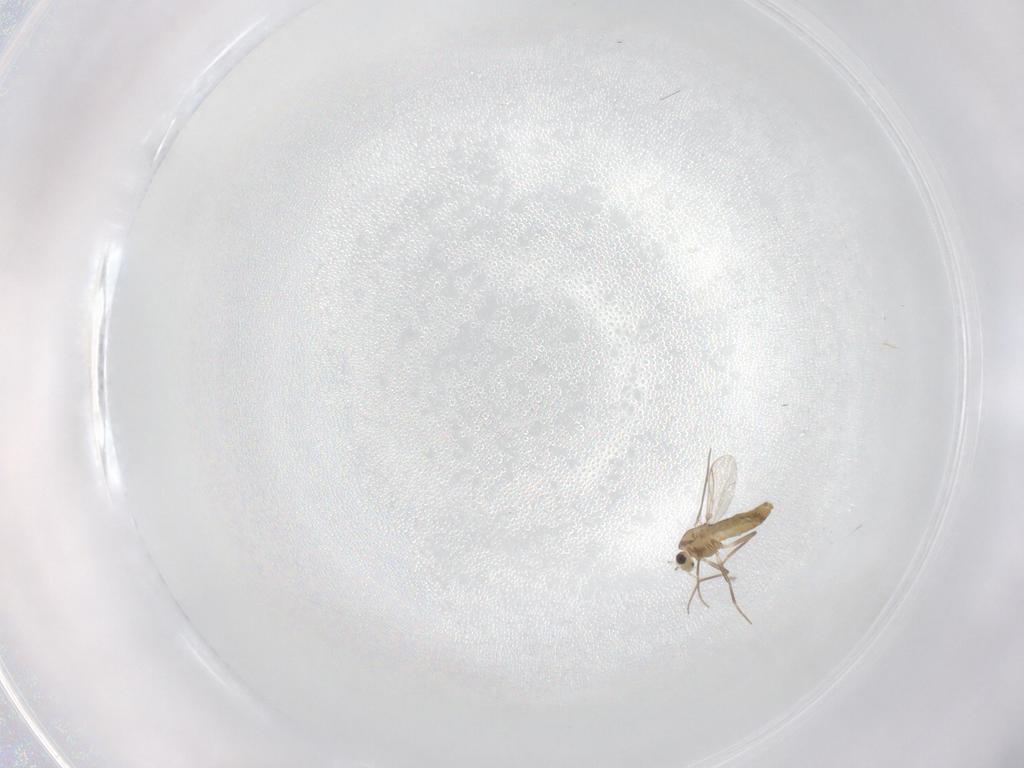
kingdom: Animalia
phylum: Arthropoda
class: Insecta
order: Diptera
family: Chironomidae
